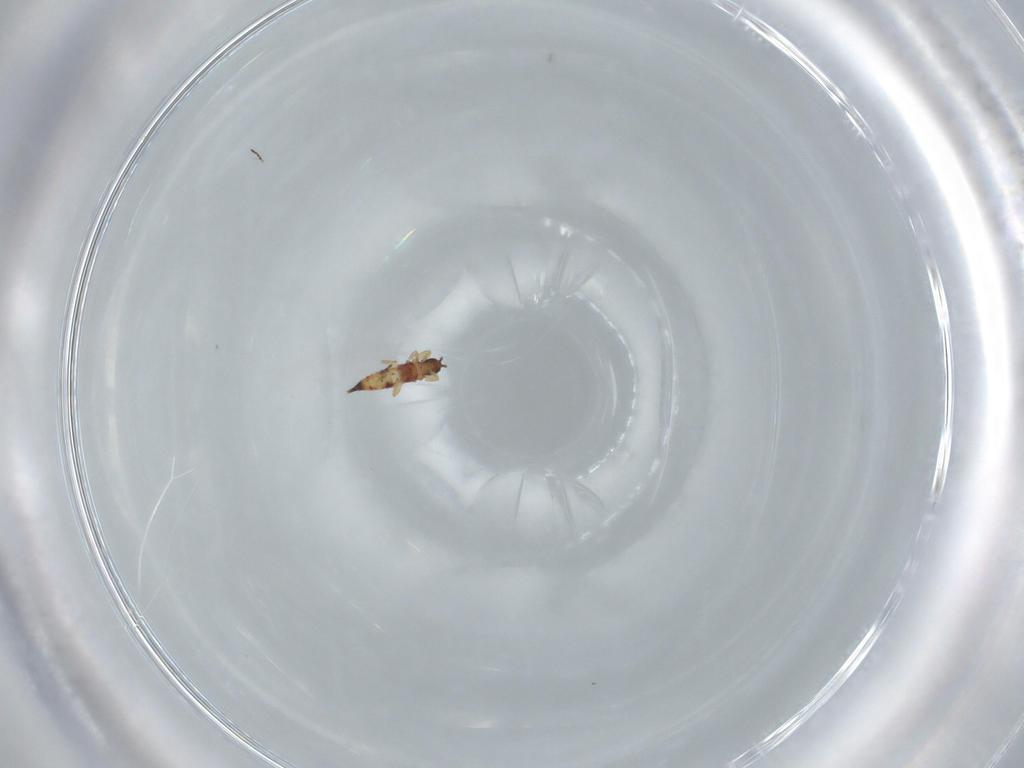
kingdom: Animalia
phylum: Arthropoda
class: Insecta
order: Thysanoptera
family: Phlaeothripidae
